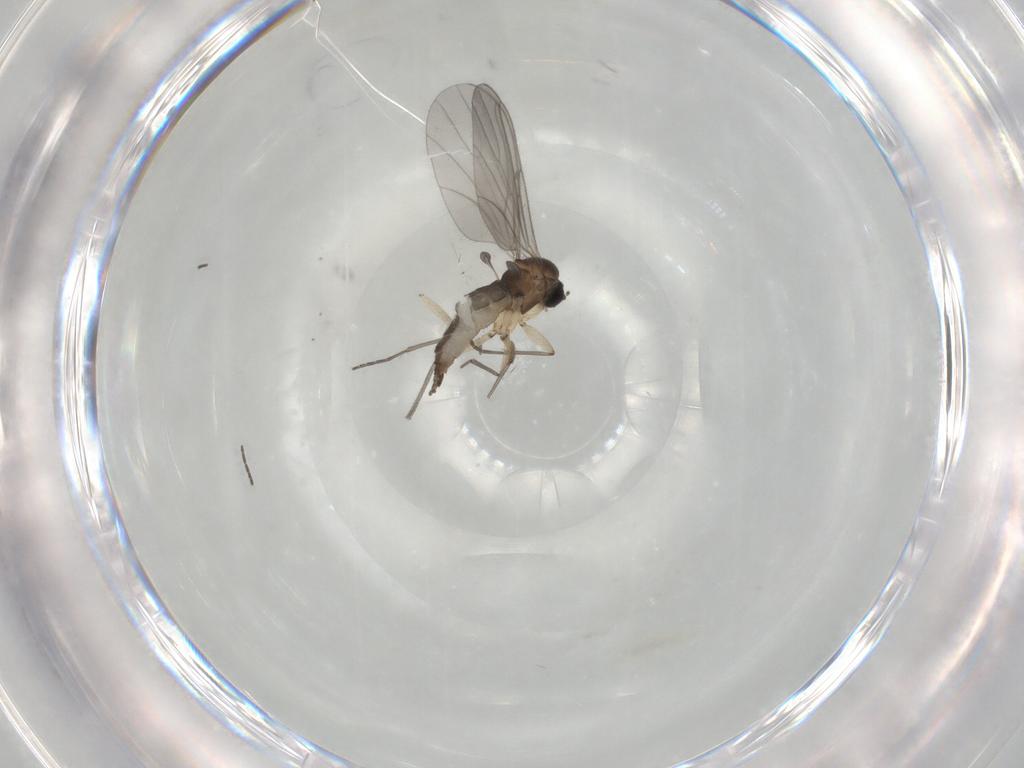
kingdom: Animalia
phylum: Arthropoda
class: Insecta
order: Diptera
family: Sciaridae
